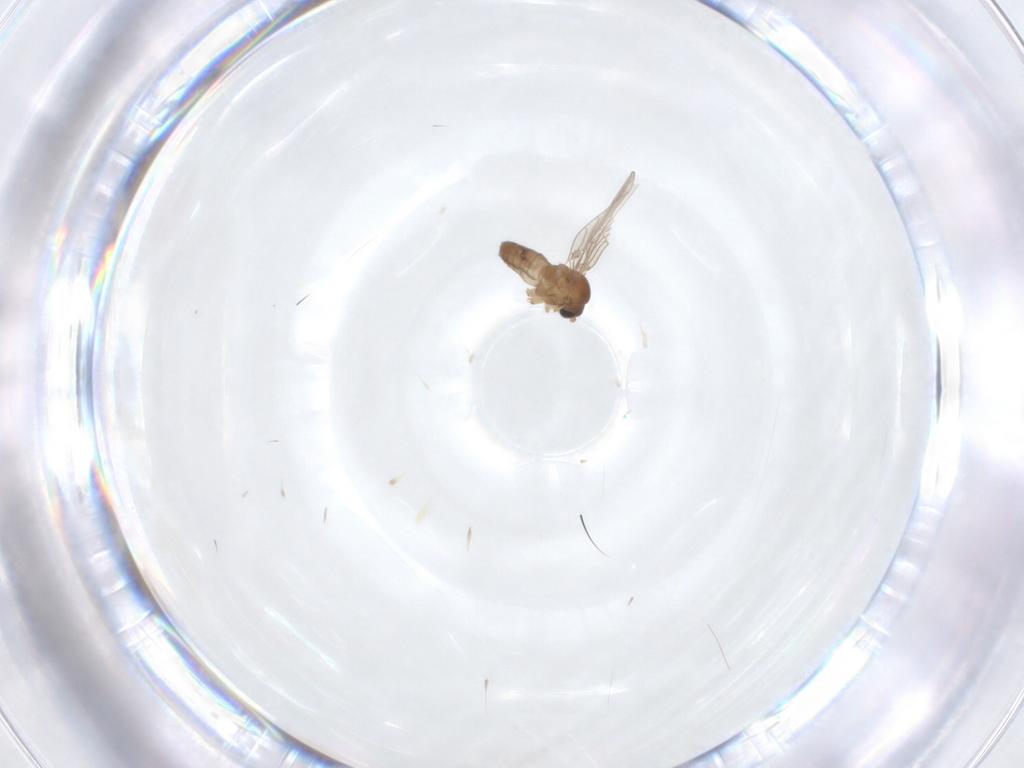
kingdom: Animalia
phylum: Arthropoda
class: Insecta
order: Diptera
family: Psychodidae
